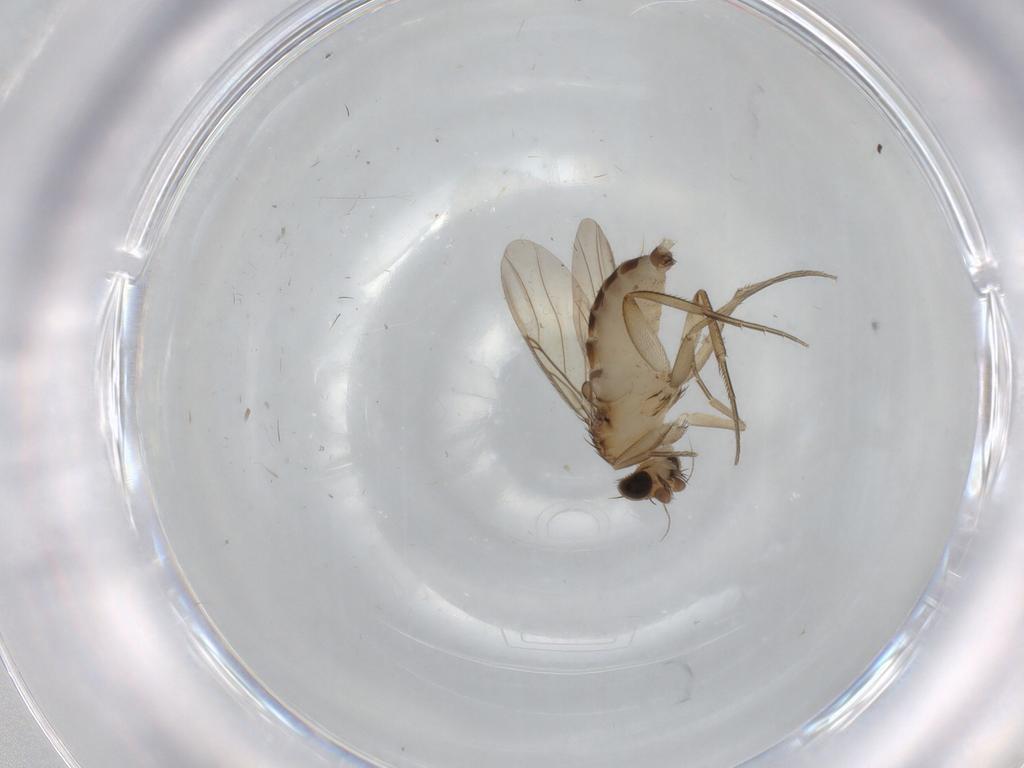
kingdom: Animalia
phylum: Arthropoda
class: Insecta
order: Diptera
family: Phoridae
